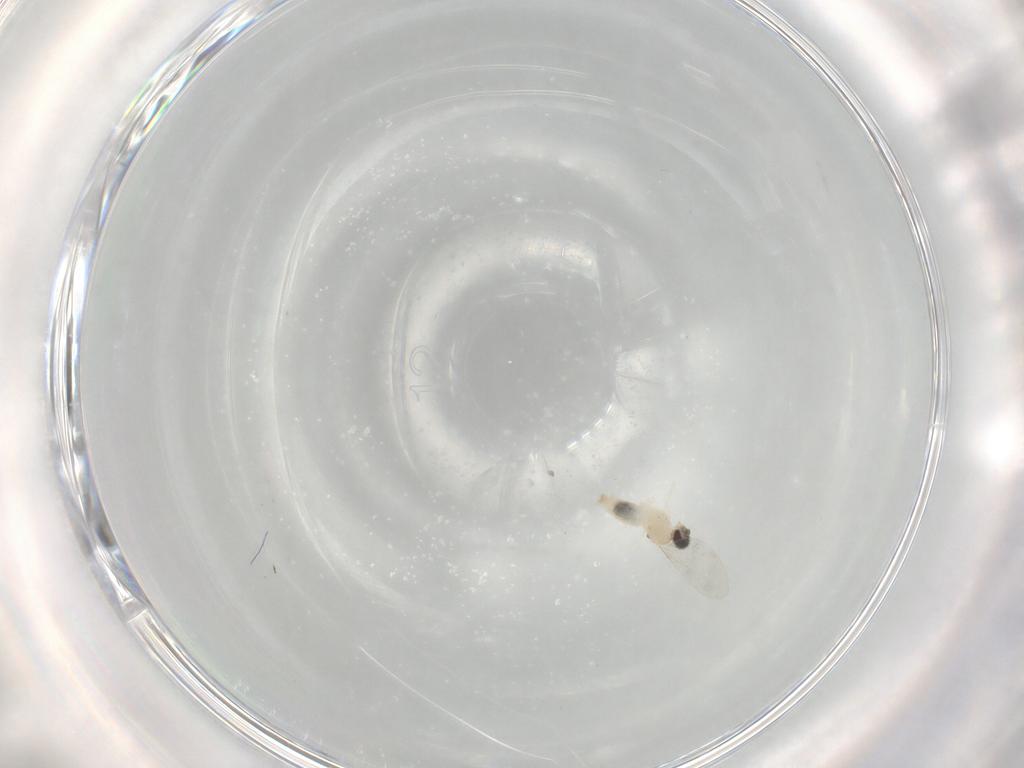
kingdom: Animalia
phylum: Arthropoda
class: Insecta
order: Diptera
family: Cecidomyiidae
